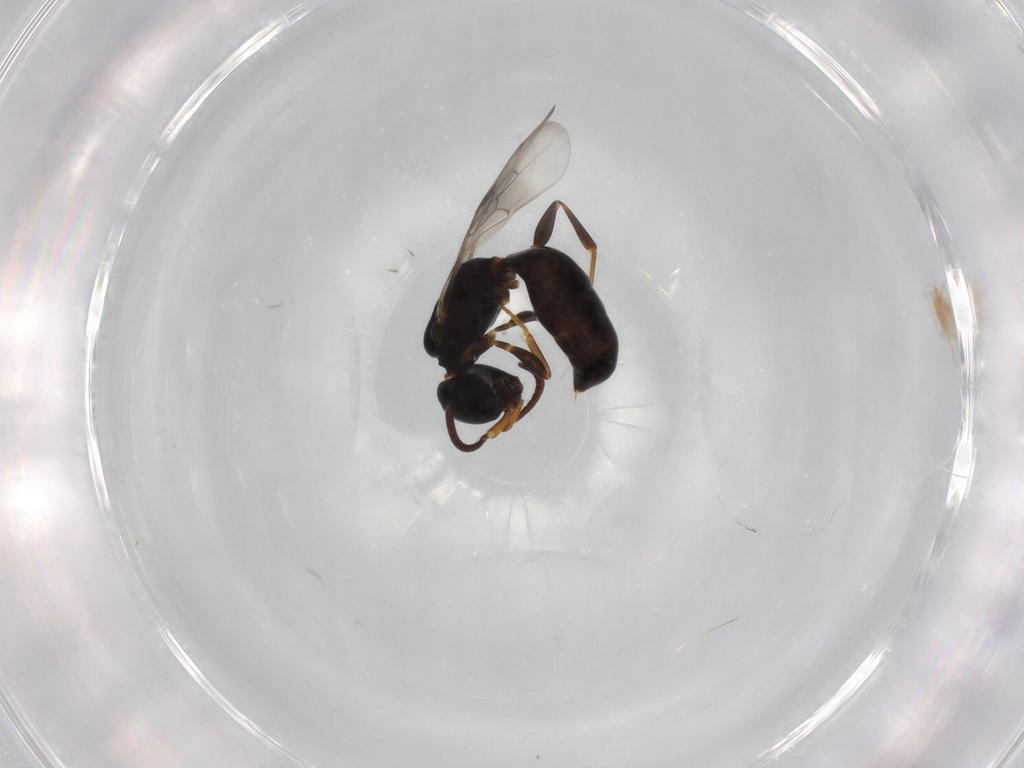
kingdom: Animalia
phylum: Arthropoda
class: Insecta
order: Hymenoptera
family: Crabronidae
